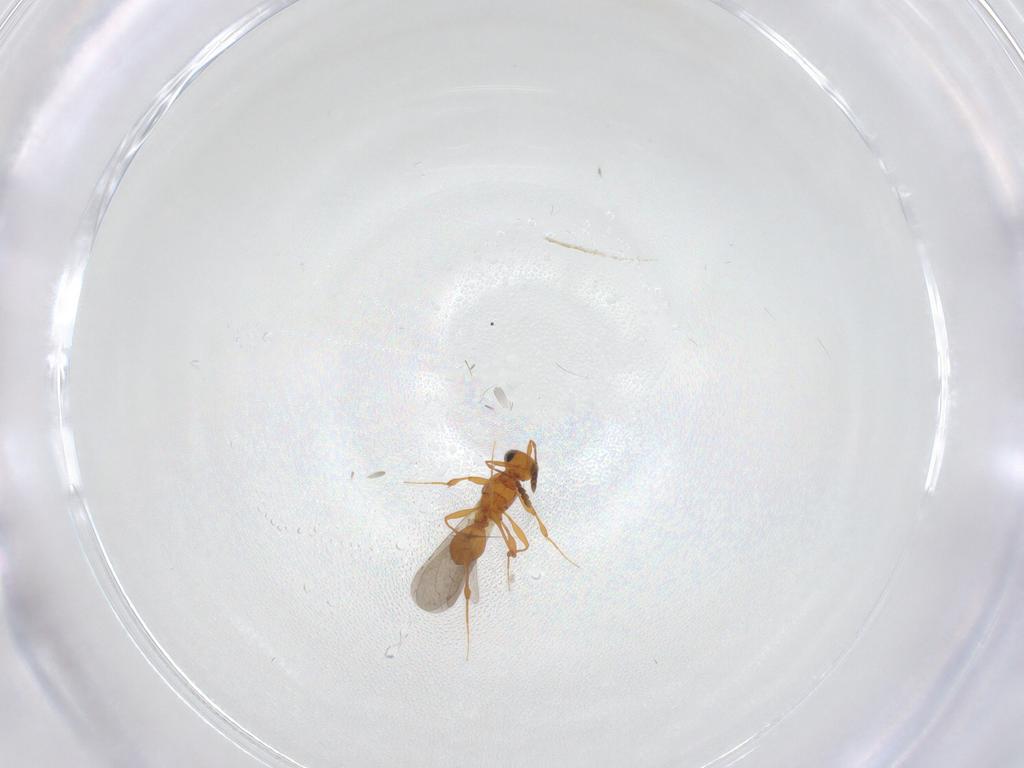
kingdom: Animalia
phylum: Arthropoda
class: Insecta
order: Hymenoptera
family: Platygastridae
